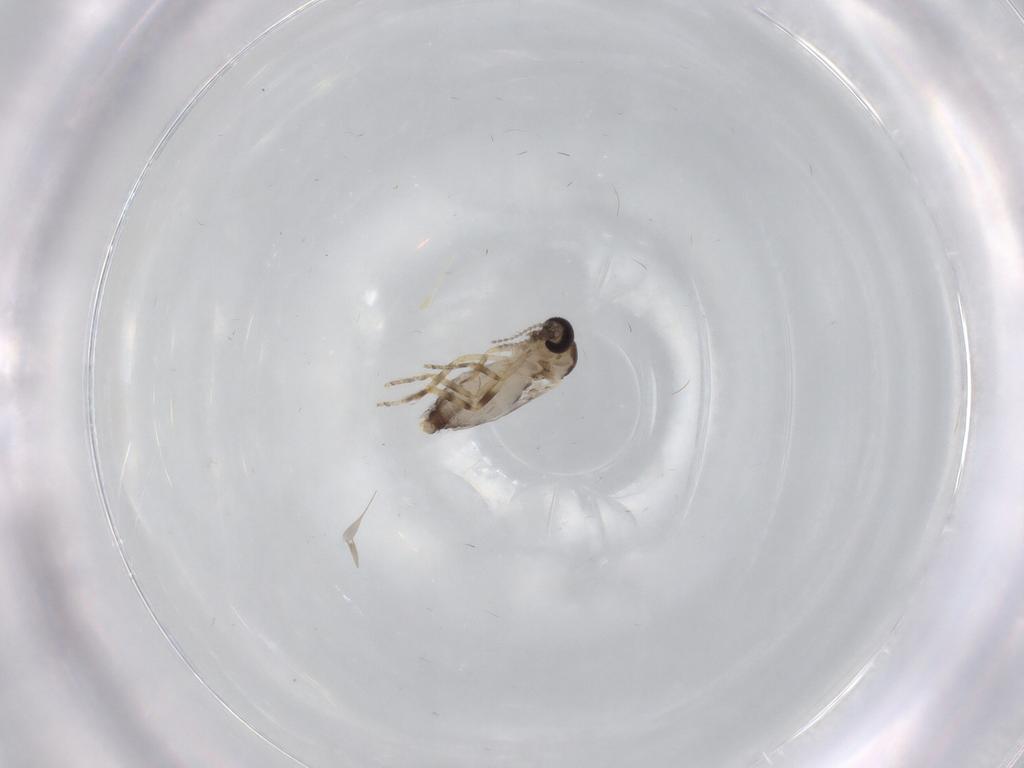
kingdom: Animalia
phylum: Arthropoda
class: Insecta
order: Diptera
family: Ceratopogonidae
